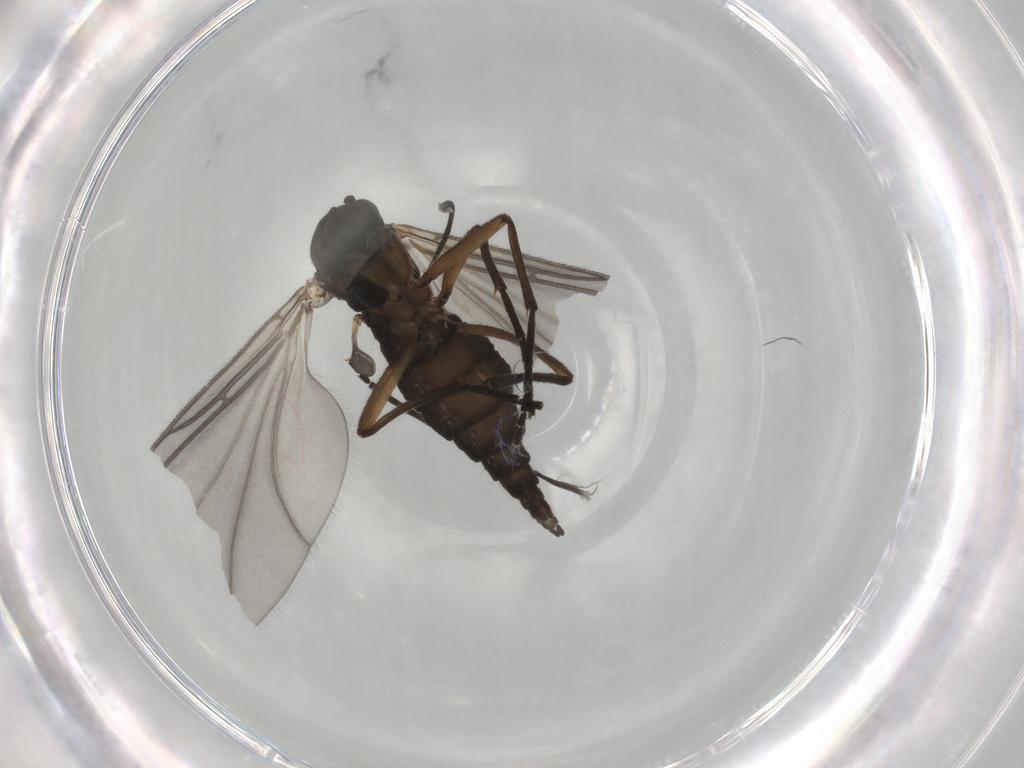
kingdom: Animalia
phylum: Arthropoda
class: Insecta
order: Diptera
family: Sciaridae
